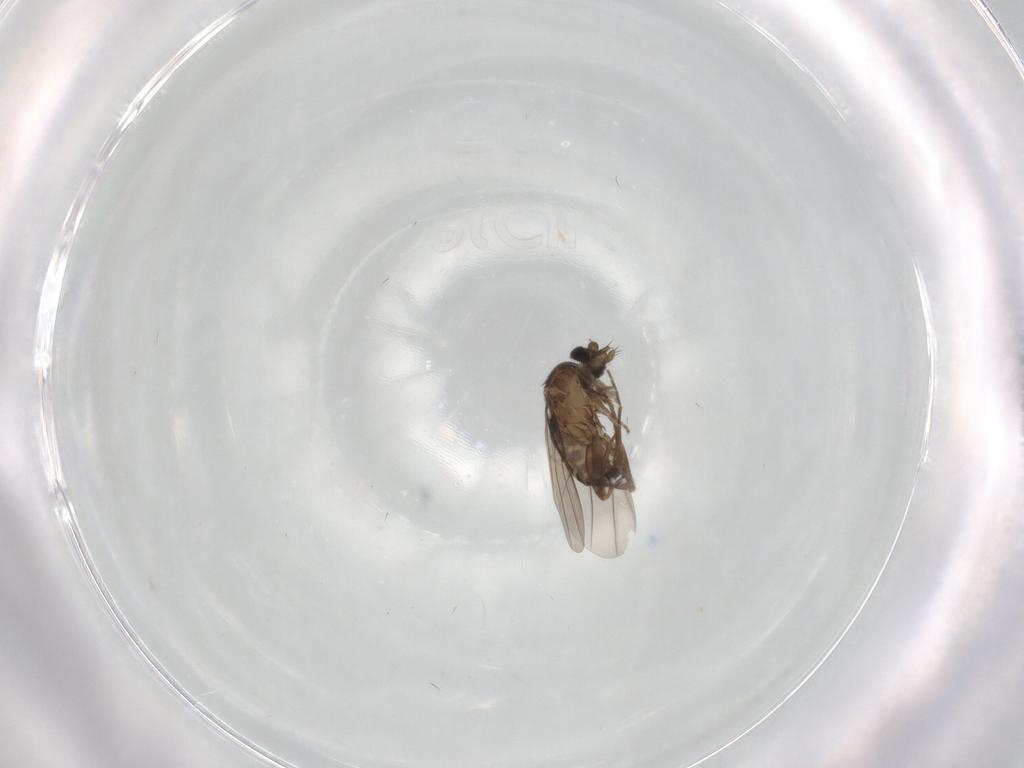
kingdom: Animalia
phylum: Arthropoda
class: Insecta
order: Diptera
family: Phoridae
